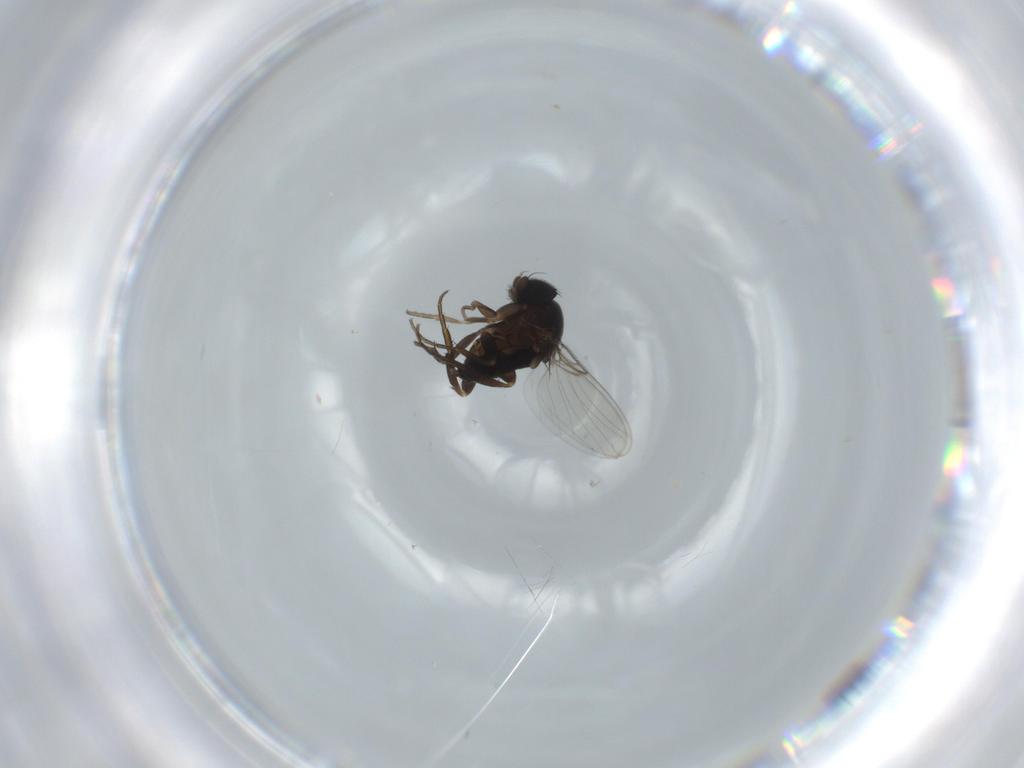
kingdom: Animalia
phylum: Arthropoda
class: Insecta
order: Diptera
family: Phoridae
